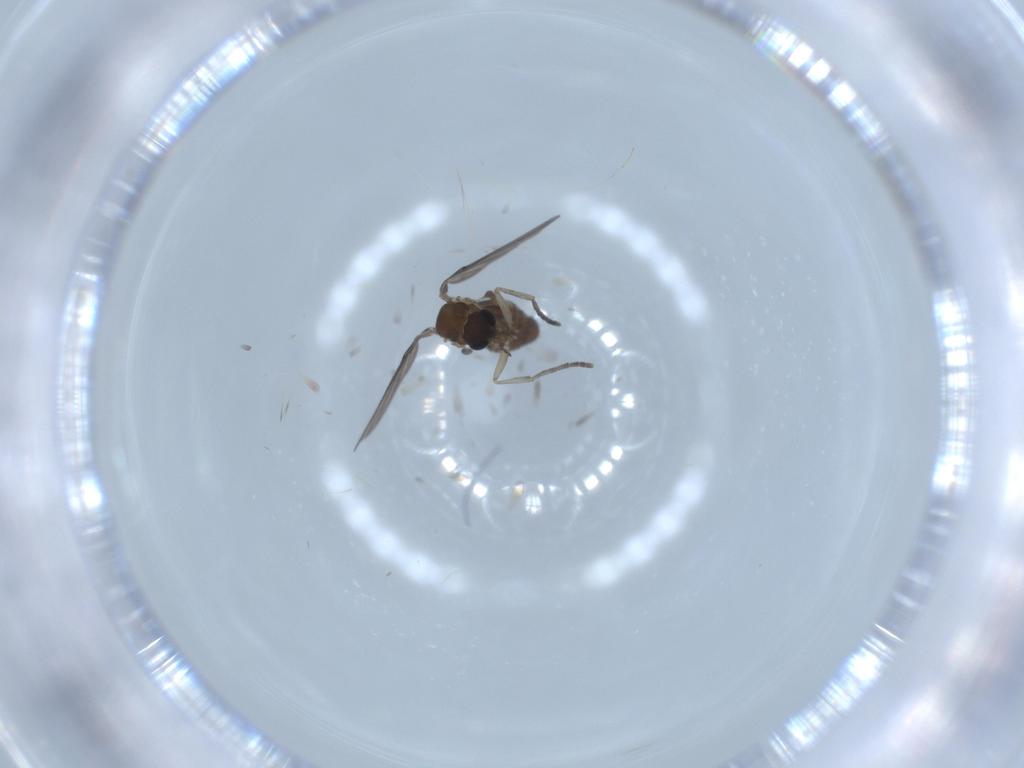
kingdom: Animalia
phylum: Arthropoda
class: Insecta
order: Diptera
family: Psychodidae
